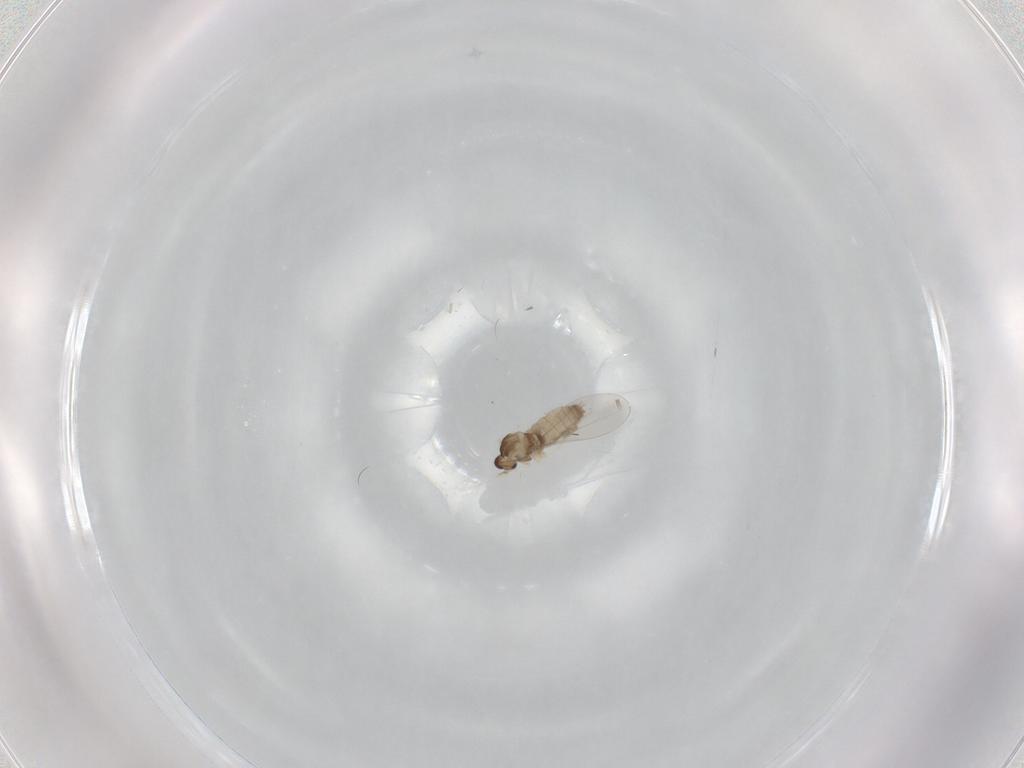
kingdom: Animalia
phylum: Arthropoda
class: Insecta
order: Diptera
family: Cecidomyiidae
